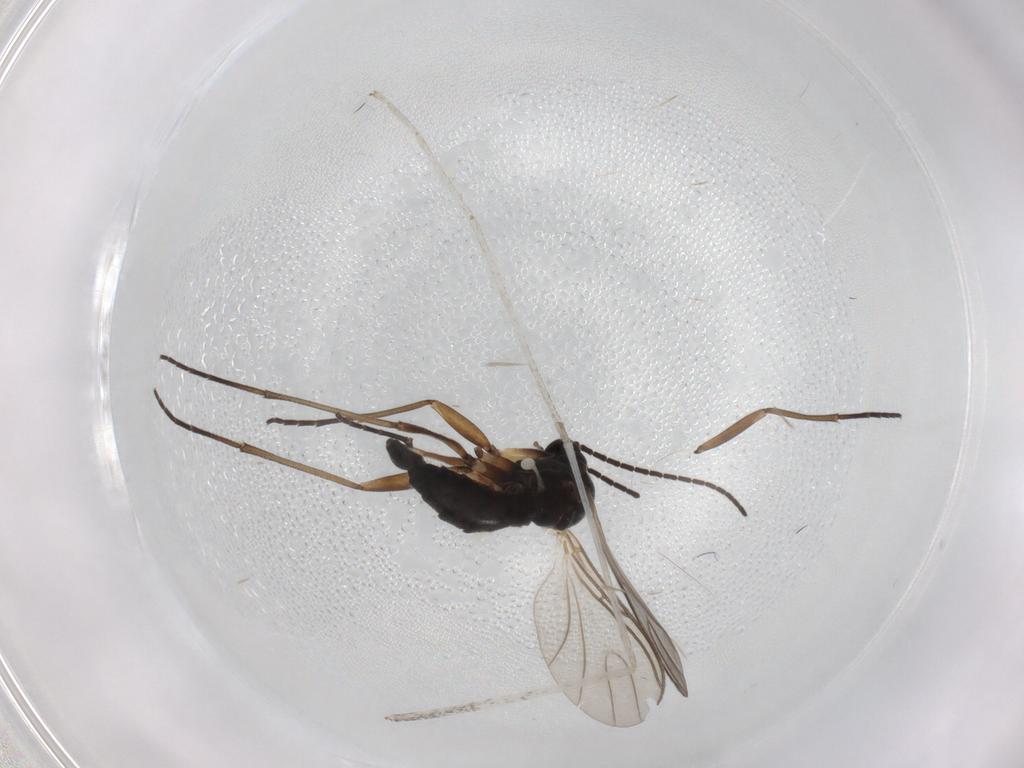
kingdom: Animalia
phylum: Arthropoda
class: Insecta
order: Diptera
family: Sciaridae
